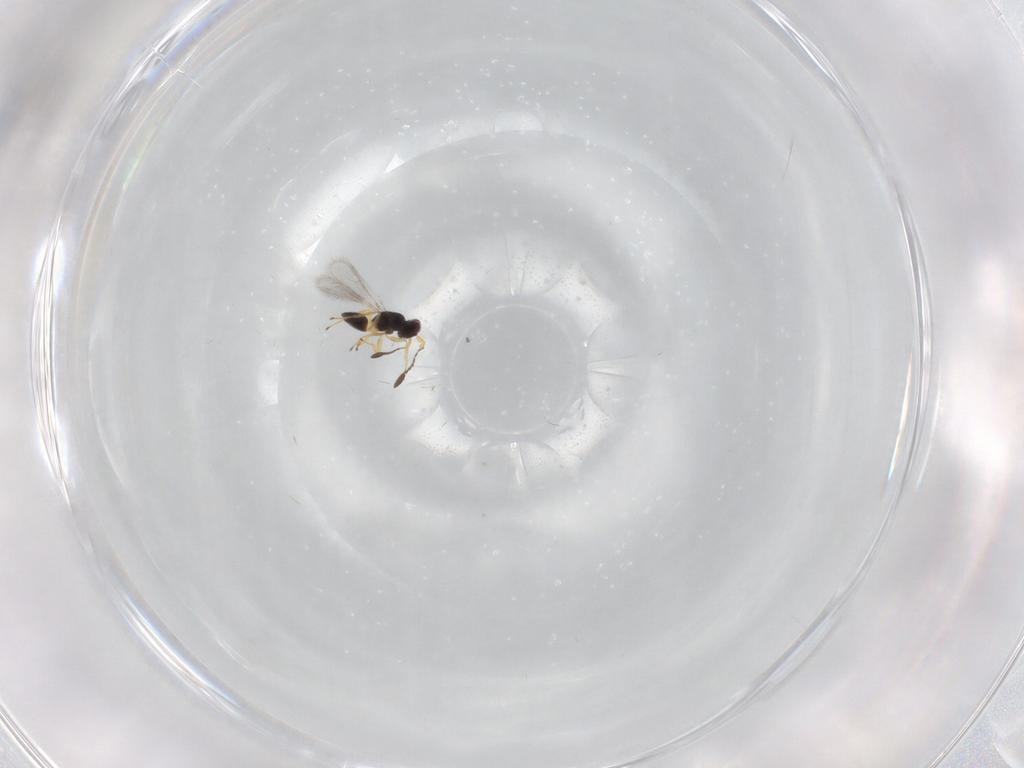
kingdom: Animalia
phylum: Arthropoda
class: Insecta
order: Hymenoptera
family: Mymaridae
